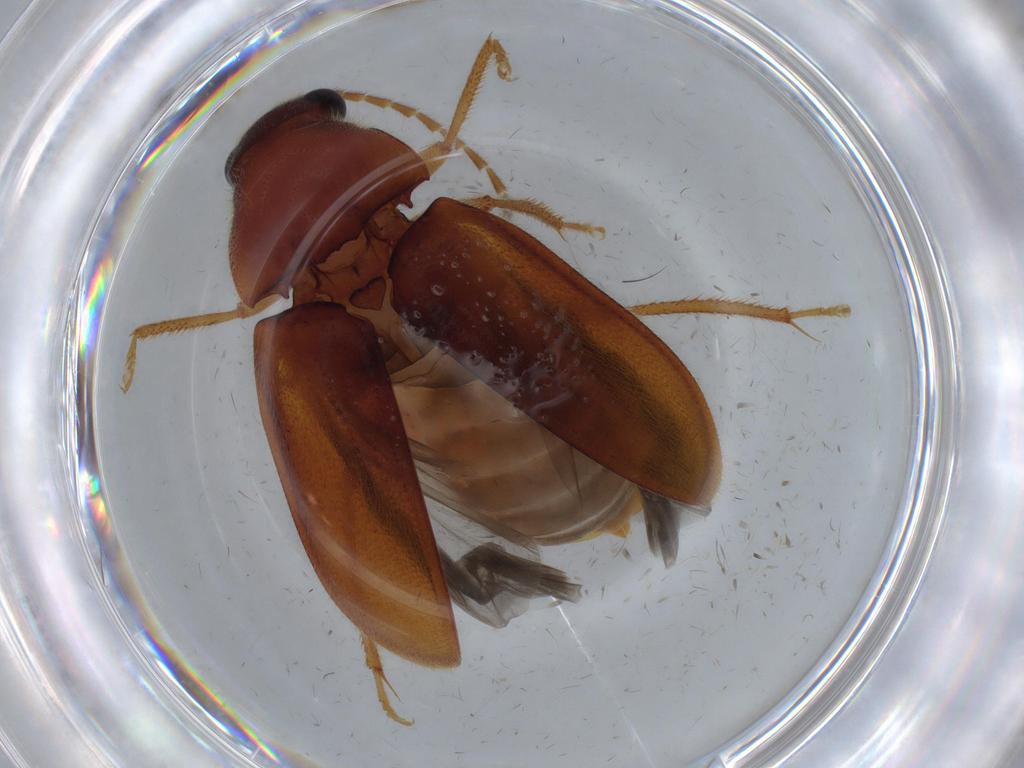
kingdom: Animalia
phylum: Arthropoda
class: Insecta
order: Coleoptera
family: Ptilodactylidae
